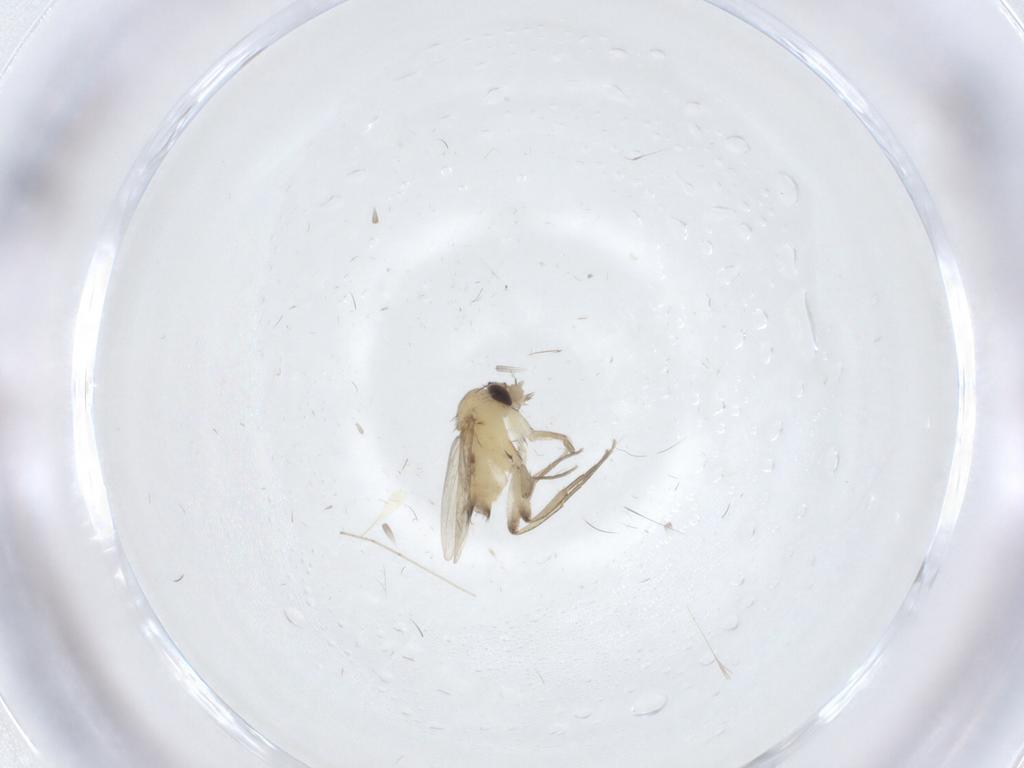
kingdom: Animalia
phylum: Arthropoda
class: Insecta
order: Diptera
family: Phoridae
